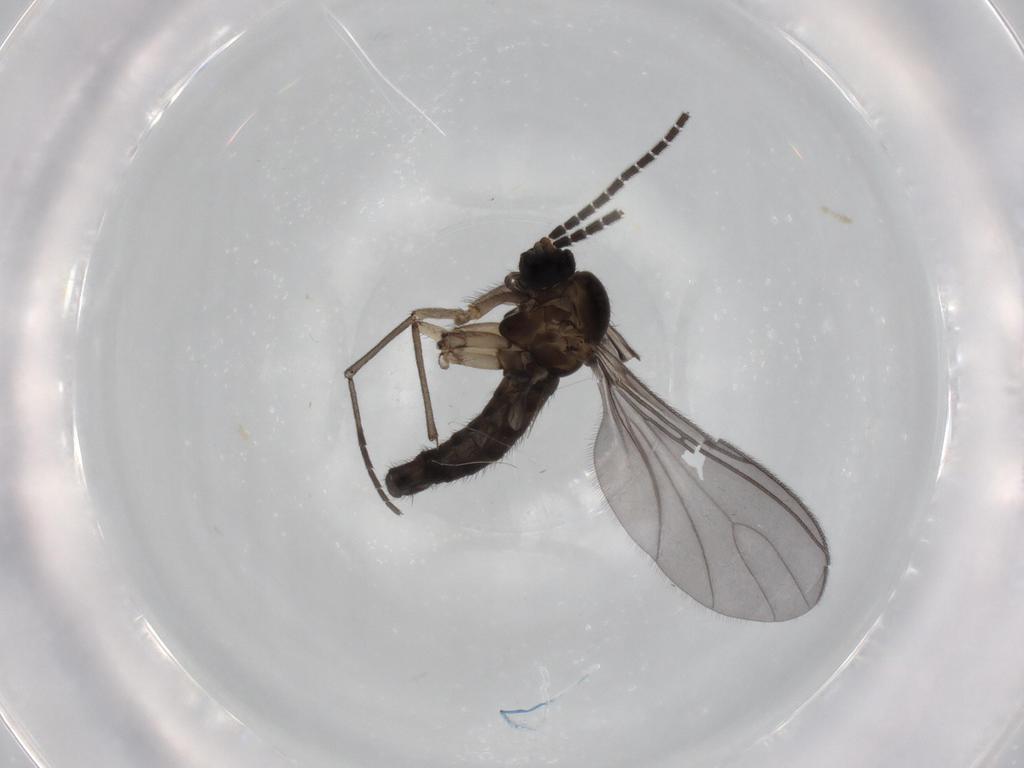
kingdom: Animalia
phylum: Arthropoda
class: Insecta
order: Diptera
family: Sciaridae
